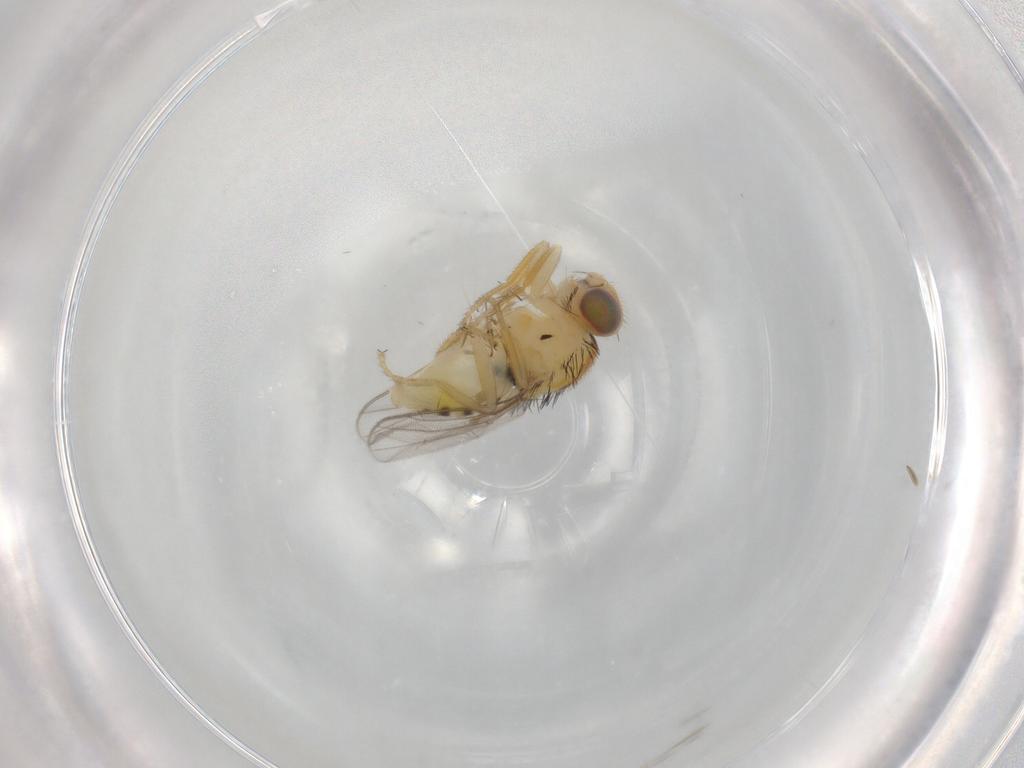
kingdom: Animalia
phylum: Arthropoda
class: Insecta
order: Diptera
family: Chloropidae
